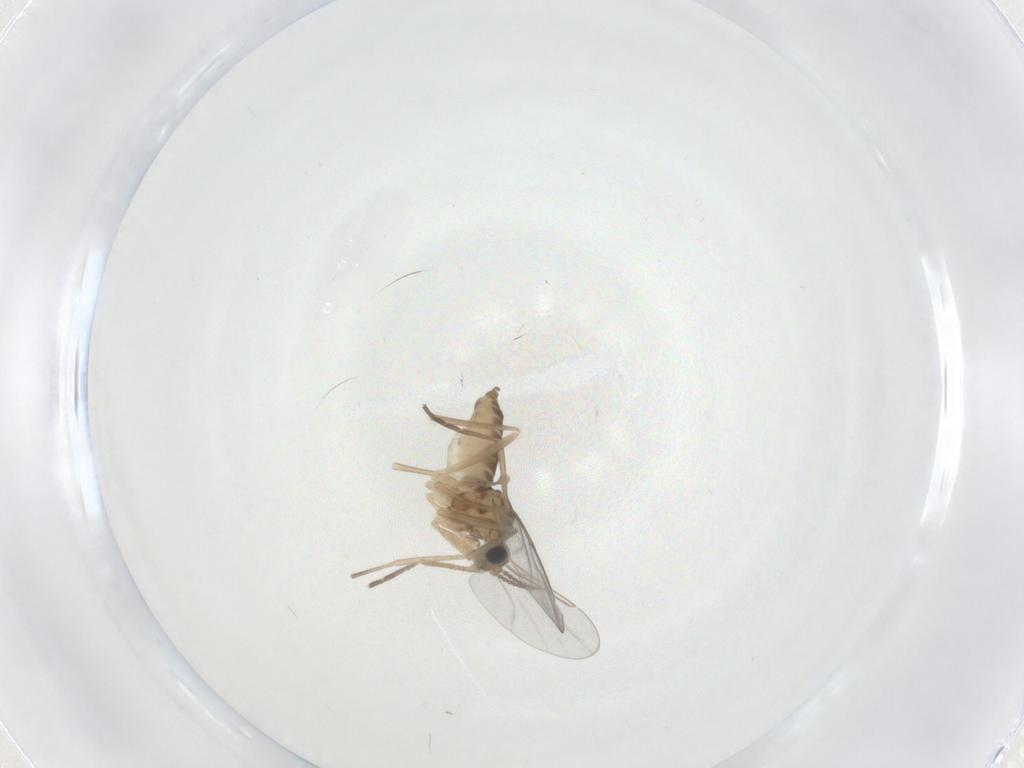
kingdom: Animalia
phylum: Arthropoda
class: Insecta
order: Diptera
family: Cecidomyiidae
